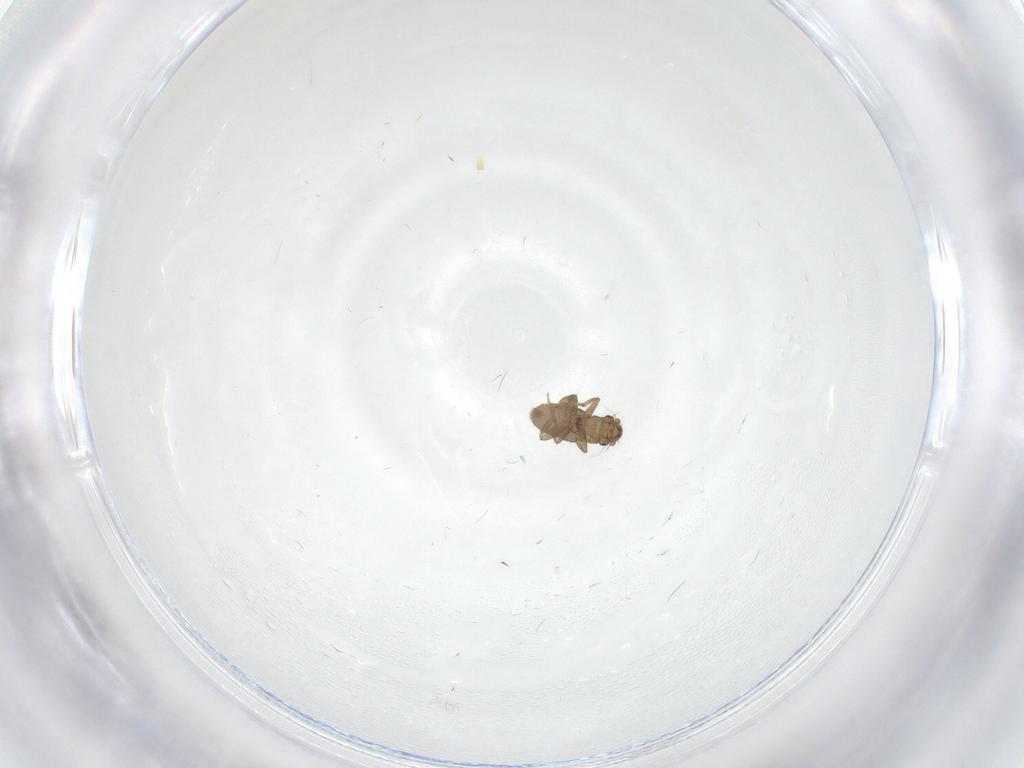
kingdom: Animalia
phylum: Arthropoda
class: Insecta
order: Diptera
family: Chironomidae
